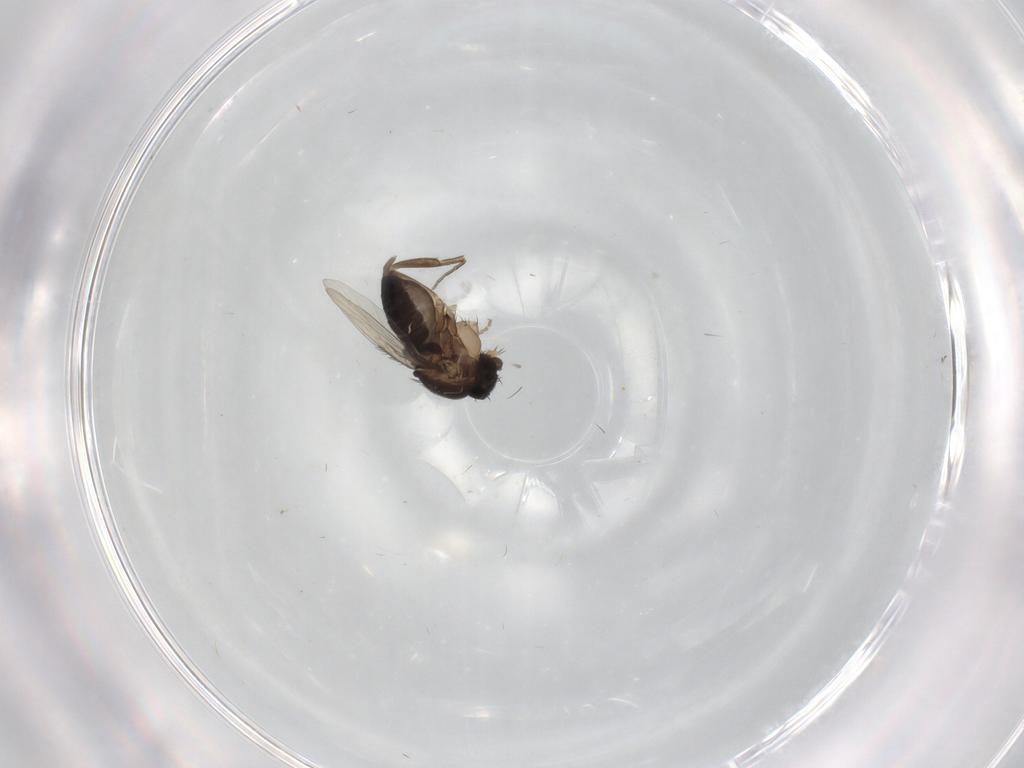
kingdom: Animalia
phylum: Arthropoda
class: Insecta
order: Diptera
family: Phoridae
